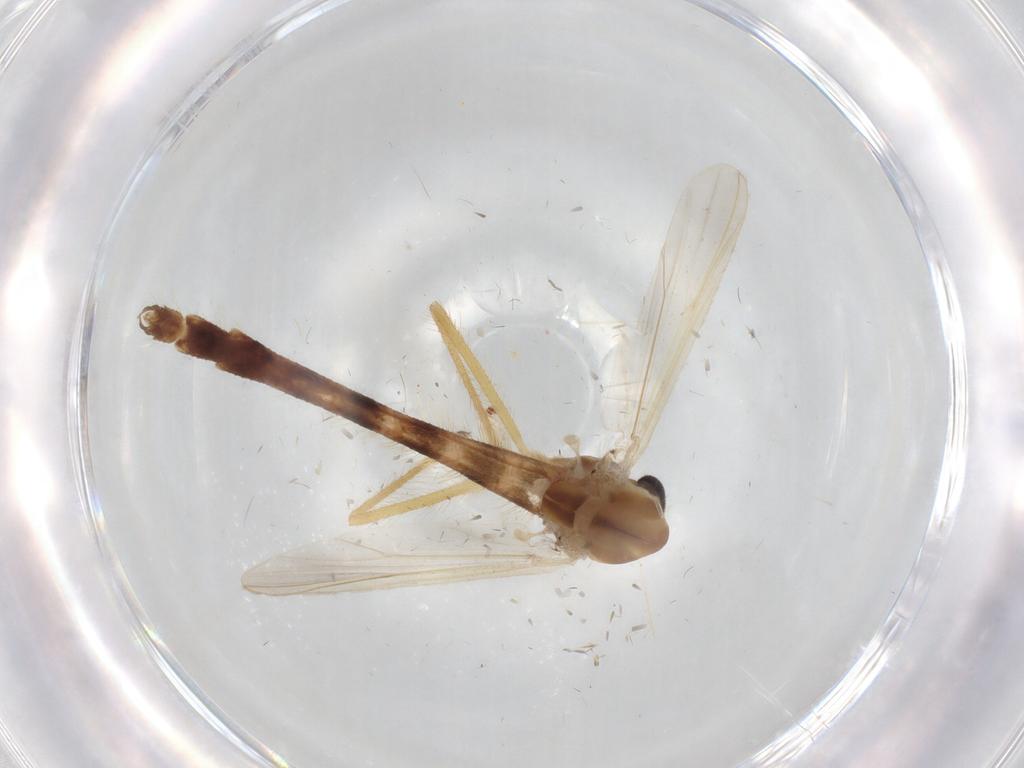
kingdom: Animalia
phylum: Arthropoda
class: Insecta
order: Diptera
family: Chironomidae
